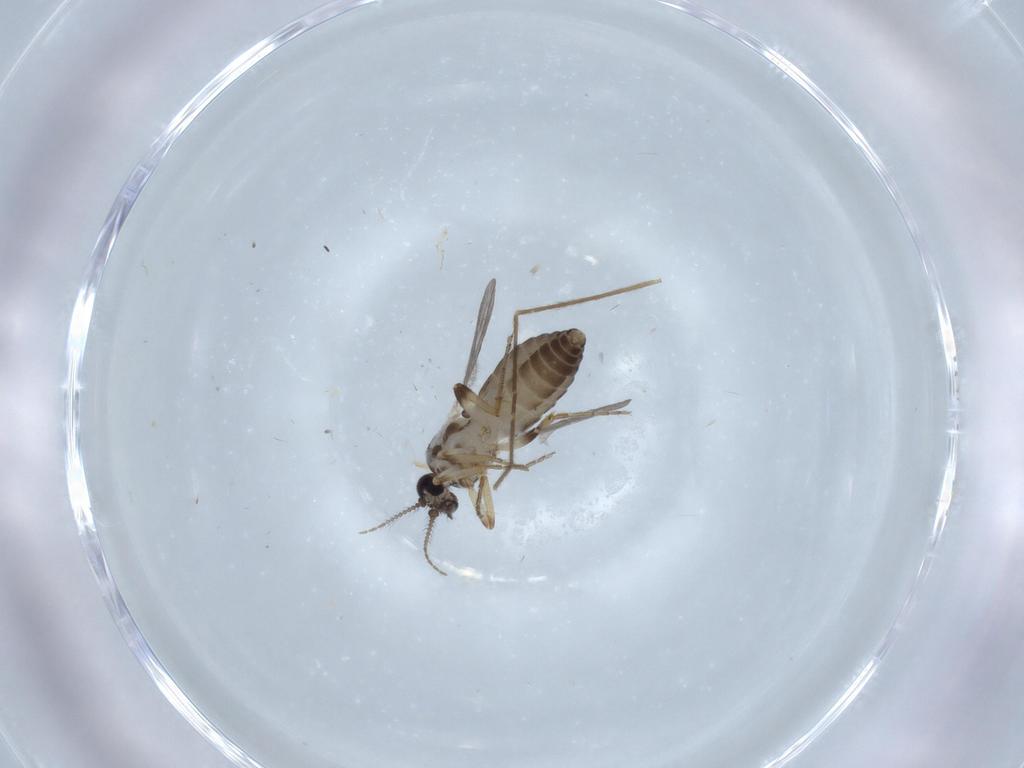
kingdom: Animalia
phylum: Arthropoda
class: Insecta
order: Diptera
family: Ceratopogonidae
